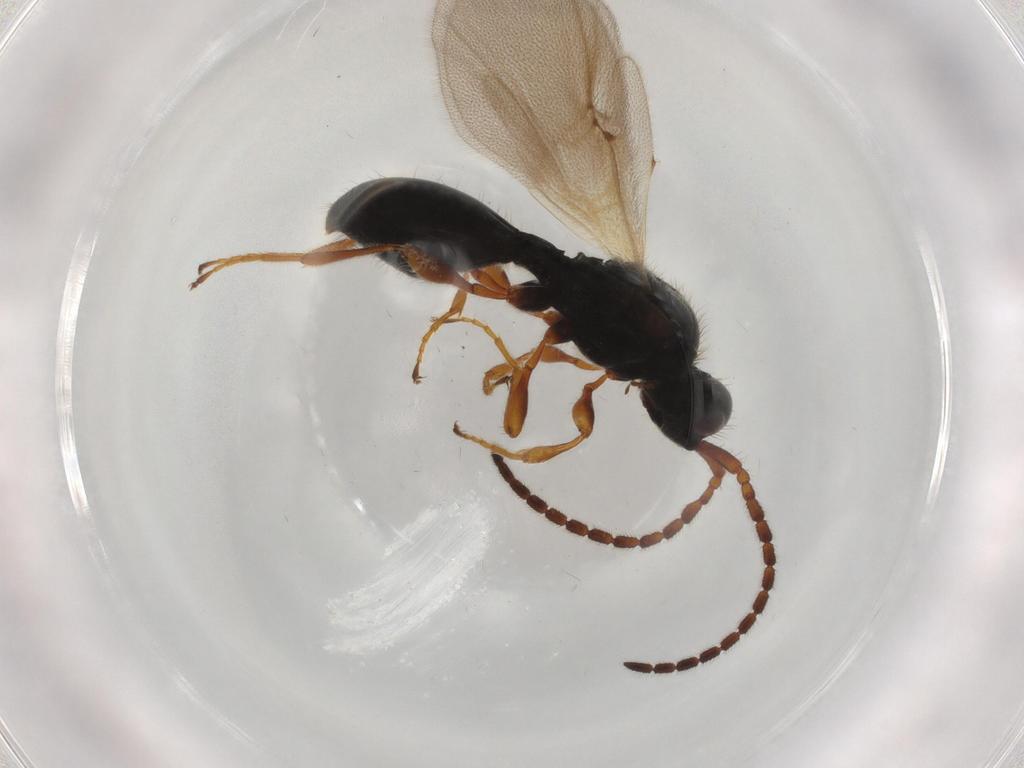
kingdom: Animalia
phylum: Arthropoda
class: Insecta
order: Hymenoptera
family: Diapriidae
